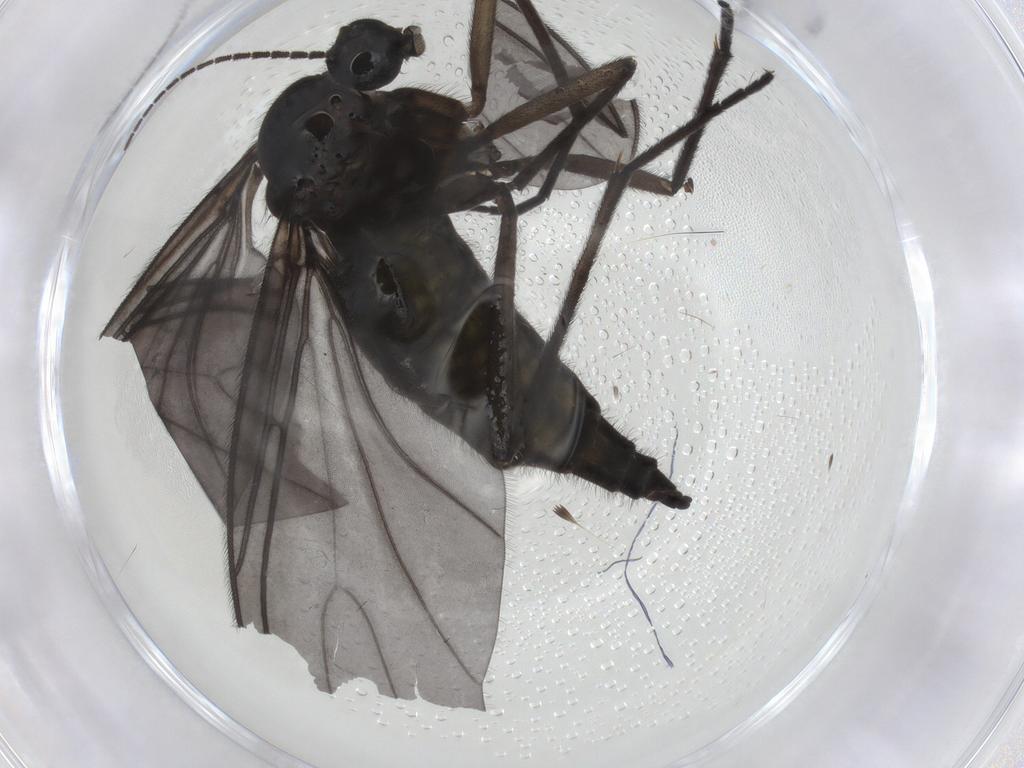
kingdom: Animalia
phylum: Arthropoda
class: Insecta
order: Diptera
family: Sciaridae
